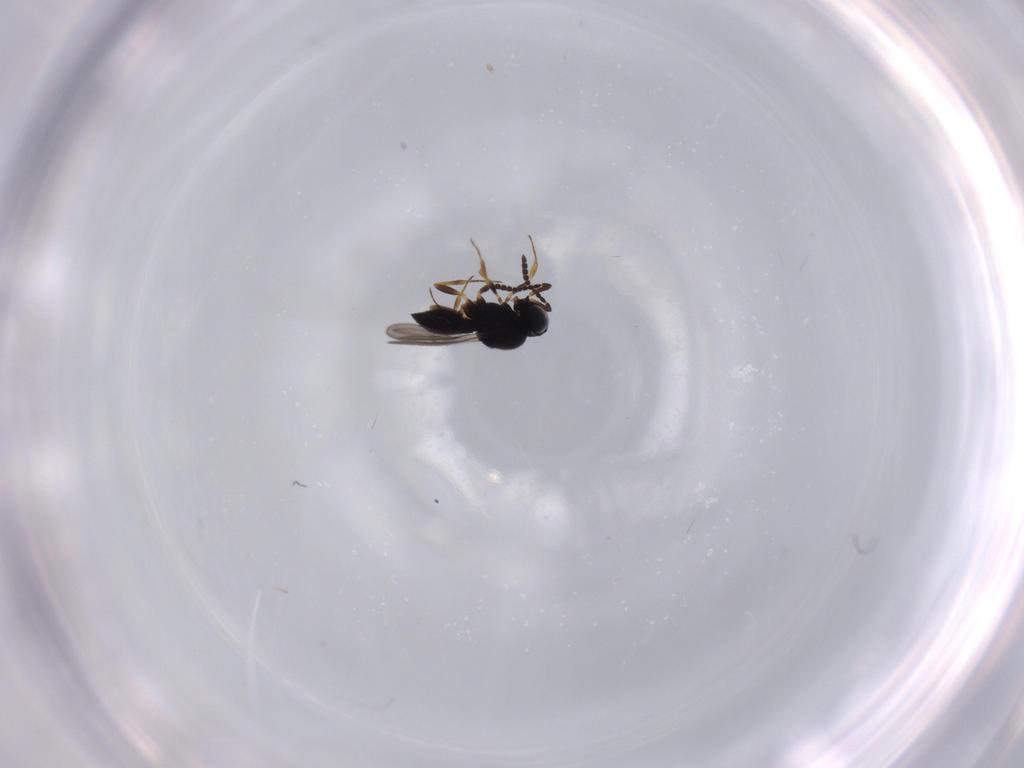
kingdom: Animalia
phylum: Arthropoda
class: Insecta
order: Hymenoptera
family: Scelionidae
